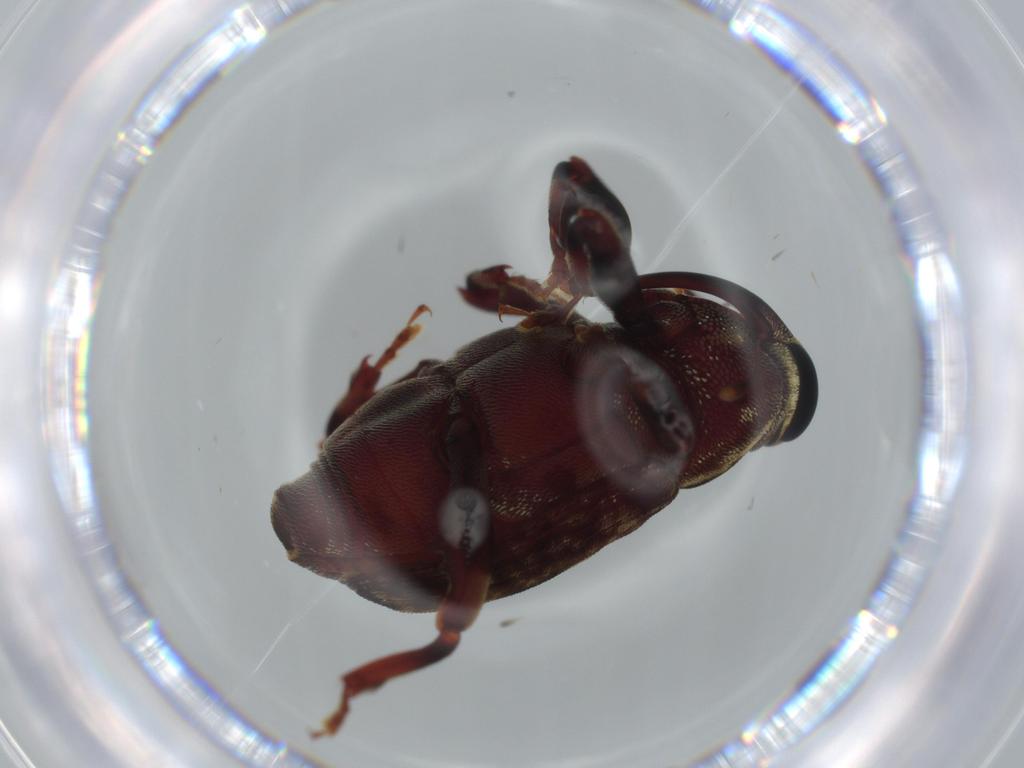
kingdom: Animalia
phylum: Arthropoda
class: Insecta
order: Coleoptera
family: Curculionidae
